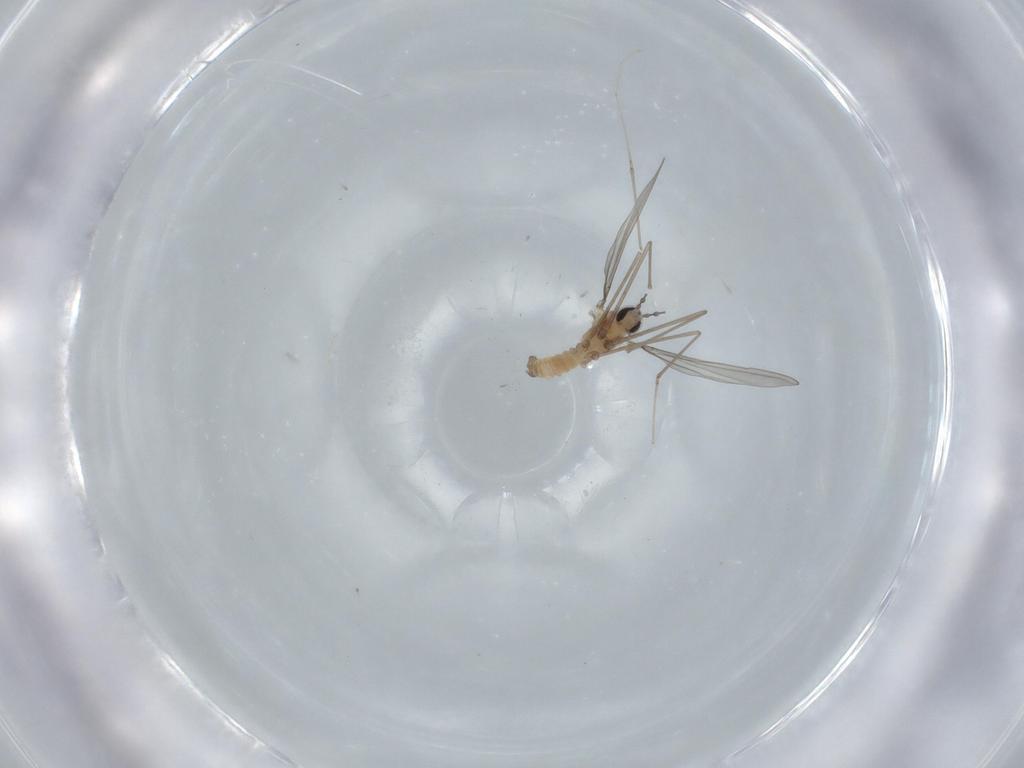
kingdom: Animalia
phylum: Arthropoda
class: Insecta
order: Diptera
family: Cecidomyiidae
